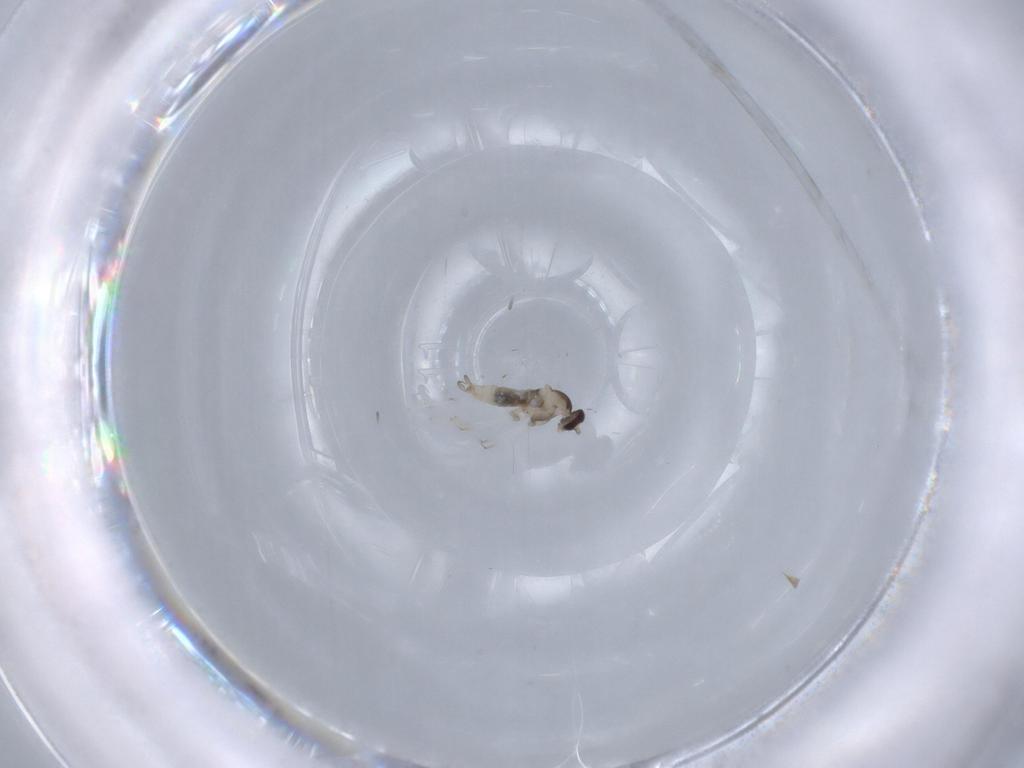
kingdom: Animalia
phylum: Arthropoda
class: Insecta
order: Diptera
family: Cecidomyiidae
